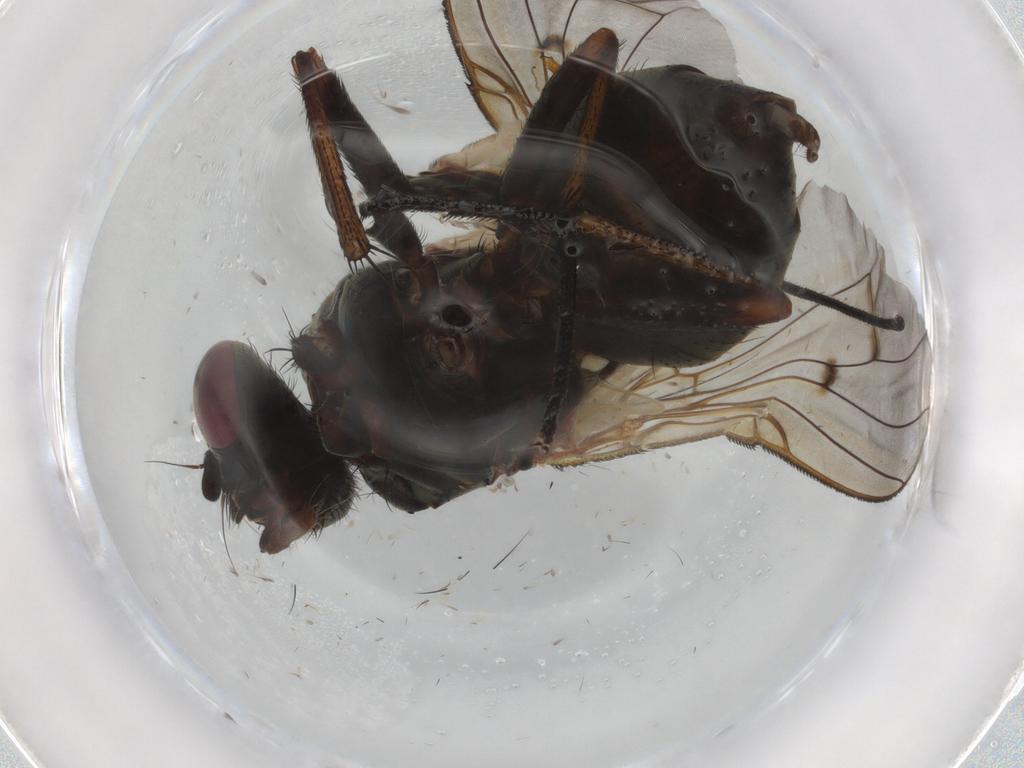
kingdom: Animalia
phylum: Arthropoda
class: Insecta
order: Diptera
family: Muscidae
